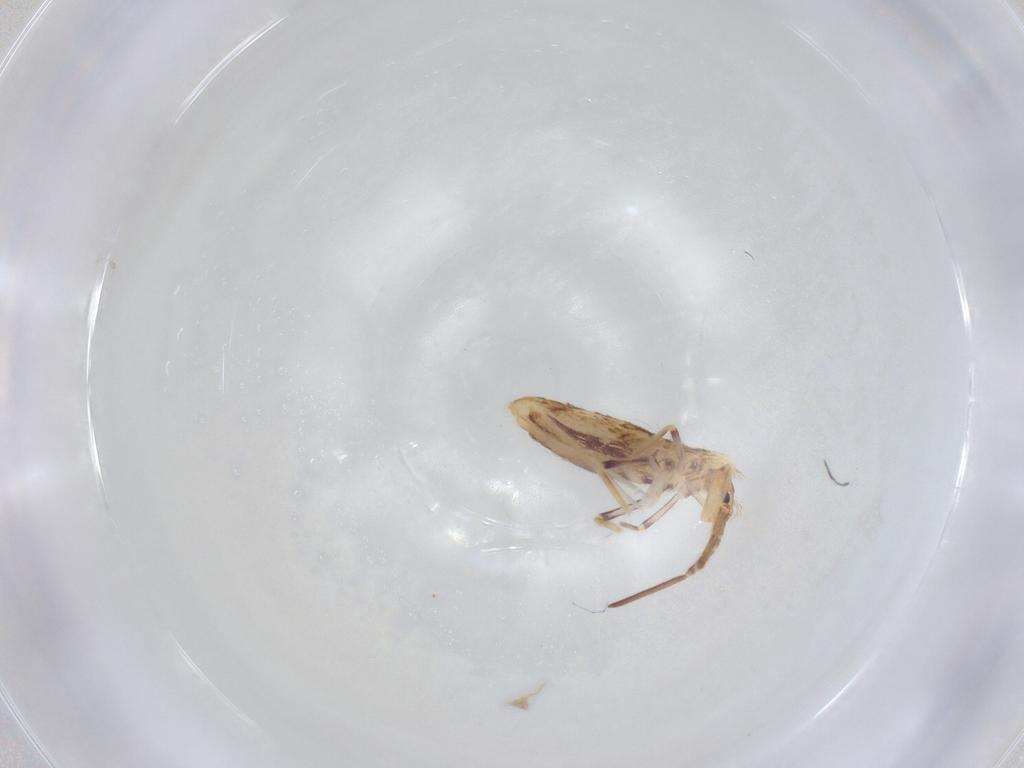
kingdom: Animalia
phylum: Arthropoda
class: Collembola
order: Poduromorpha
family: Hypogastruridae
